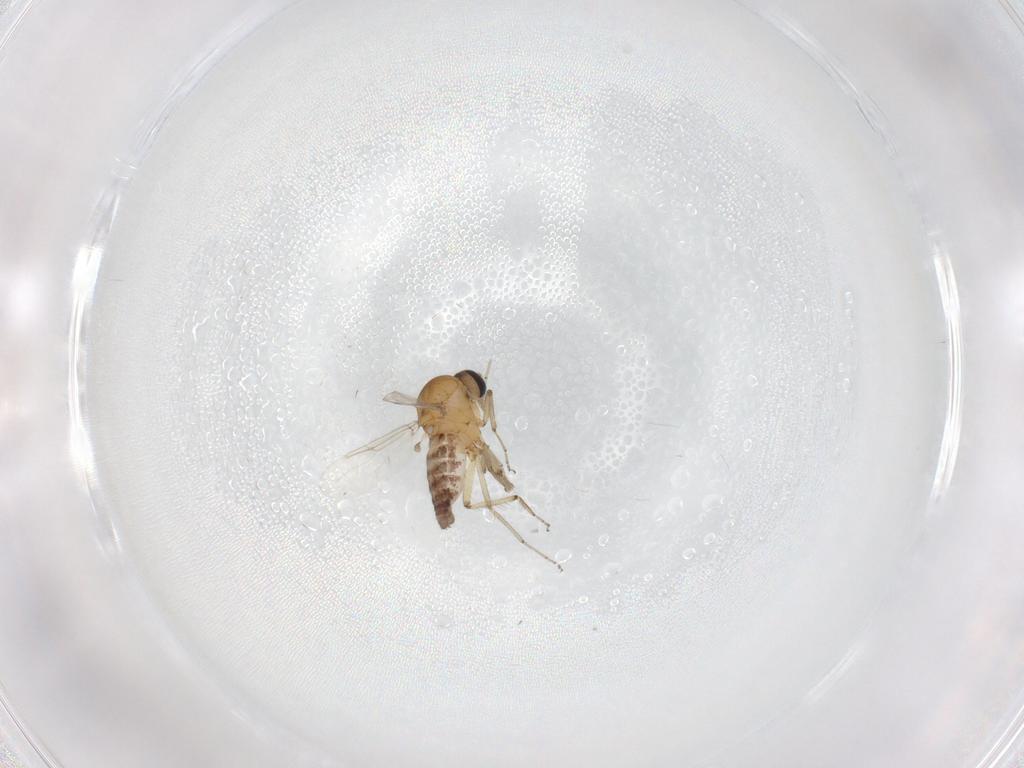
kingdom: Animalia
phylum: Arthropoda
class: Insecta
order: Diptera
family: Ceratopogonidae
